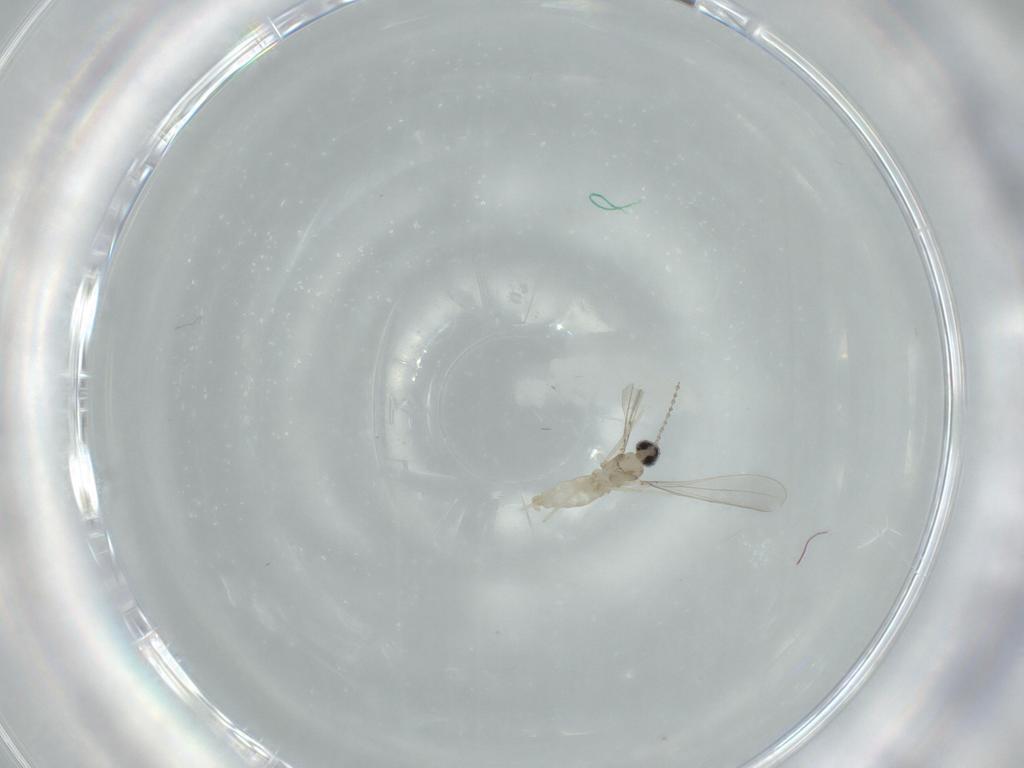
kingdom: Animalia
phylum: Arthropoda
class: Insecta
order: Diptera
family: Cecidomyiidae
